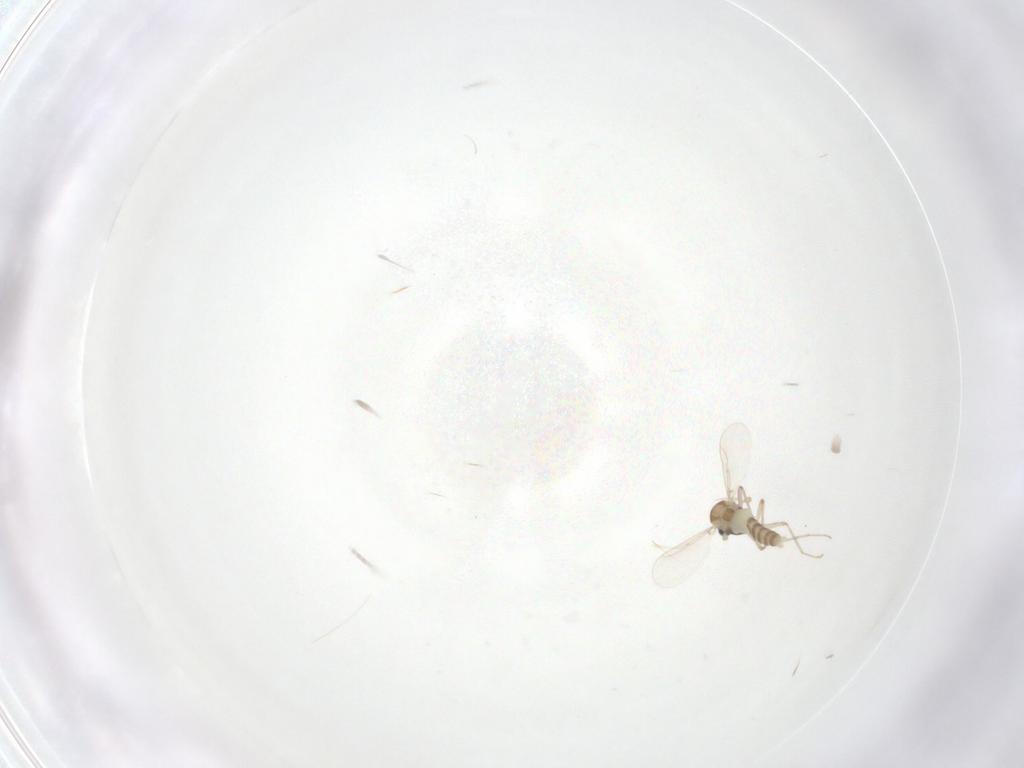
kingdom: Animalia
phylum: Arthropoda
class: Insecta
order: Diptera
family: Chironomidae
